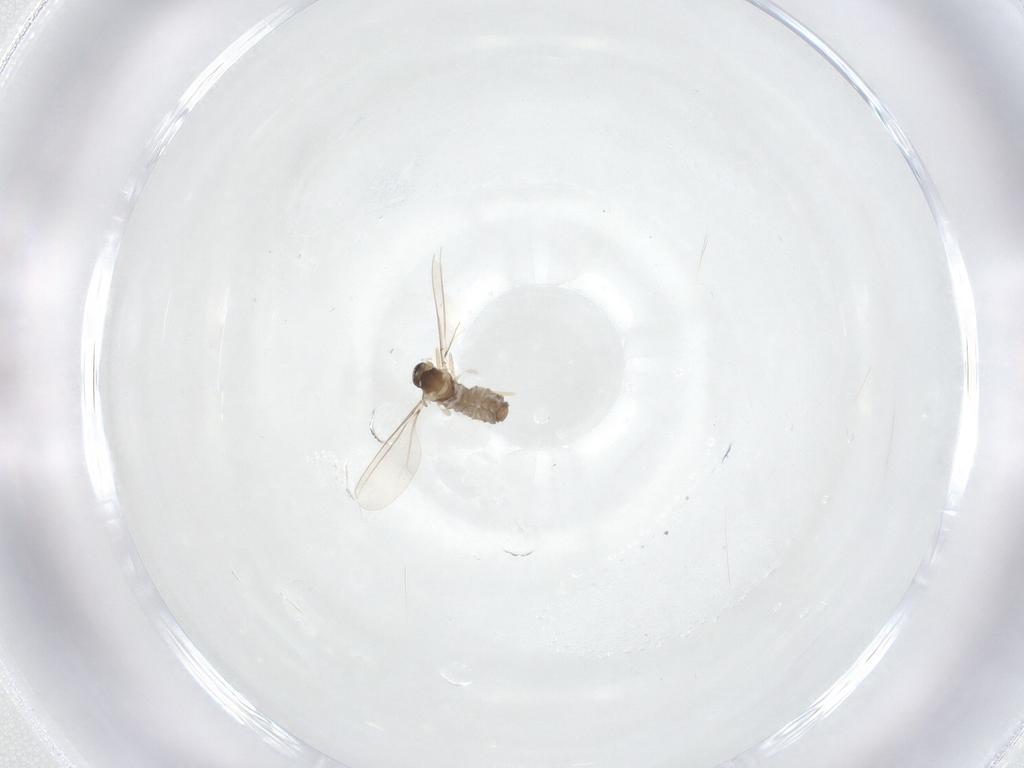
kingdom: Animalia
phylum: Arthropoda
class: Insecta
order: Diptera
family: Cecidomyiidae
